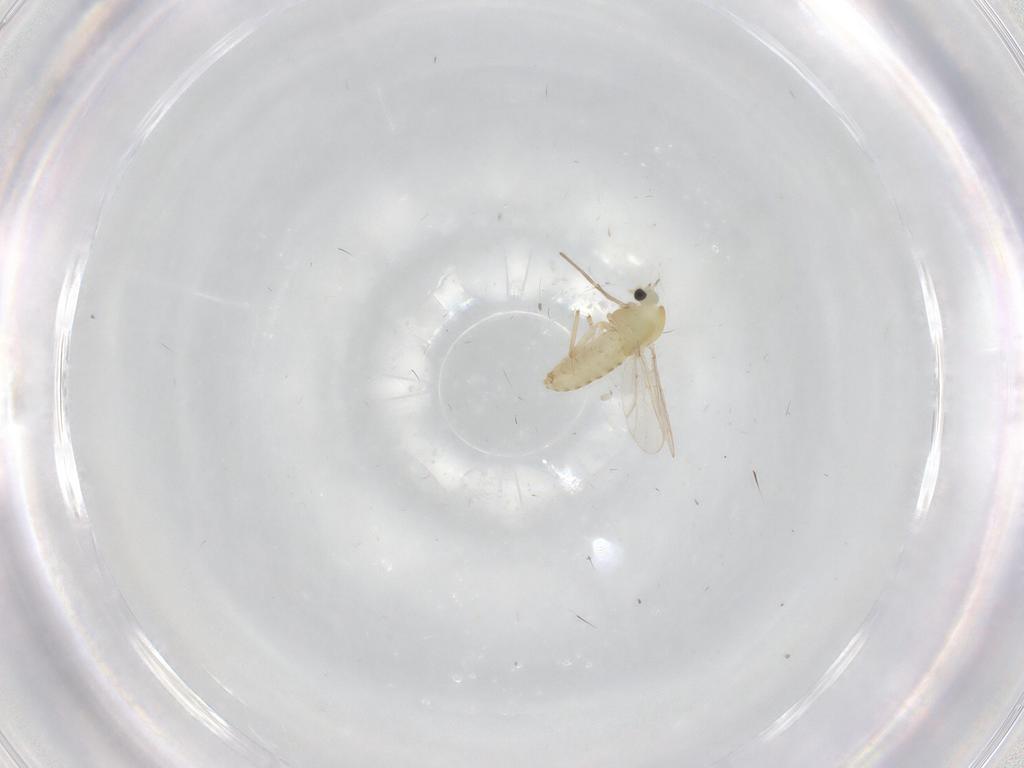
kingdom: Animalia
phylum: Arthropoda
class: Insecta
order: Diptera
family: Chironomidae
